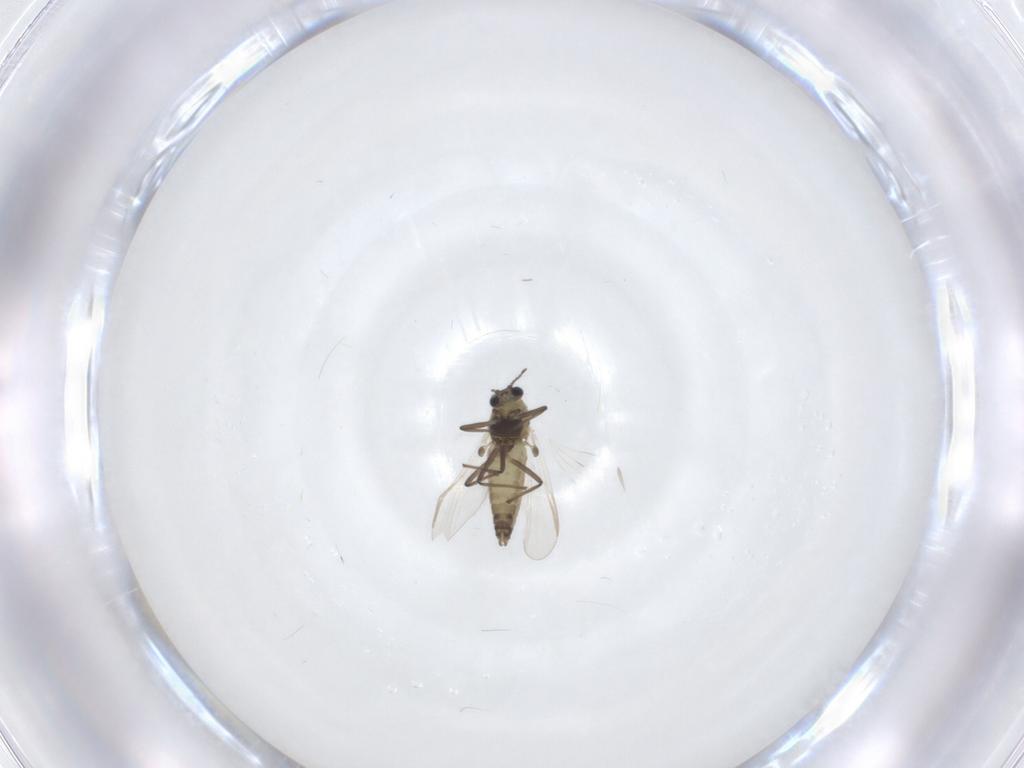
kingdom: Animalia
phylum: Arthropoda
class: Insecta
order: Diptera
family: Chironomidae
